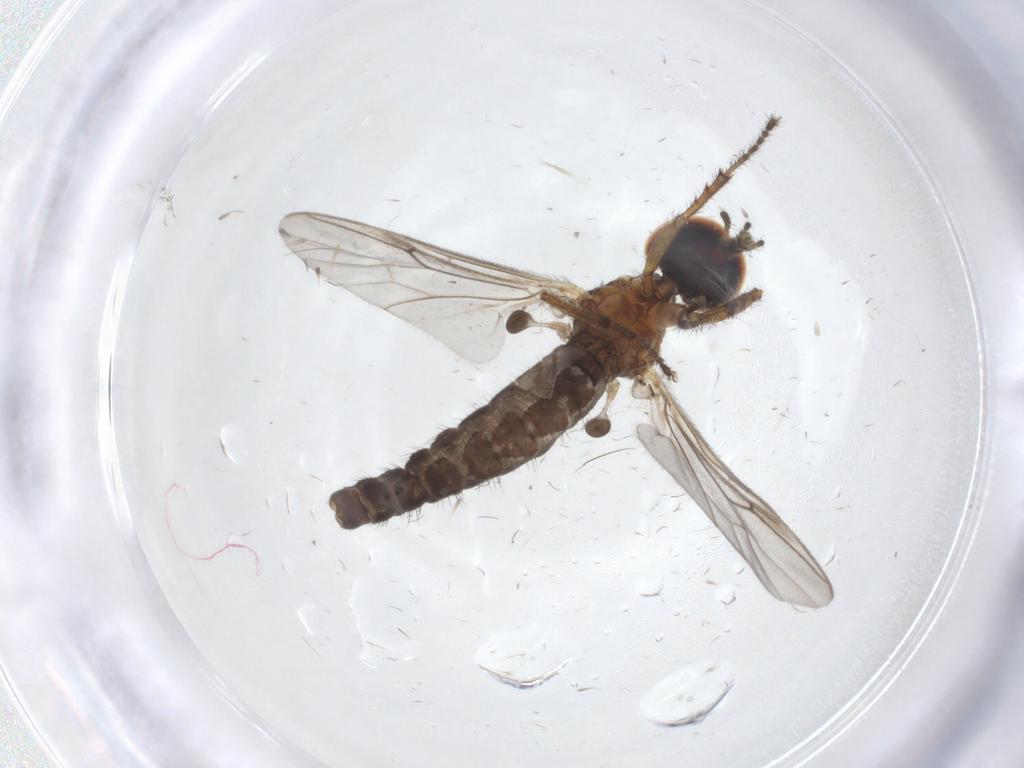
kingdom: Animalia
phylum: Arthropoda
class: Insecta
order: Diptera
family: Bibionidae
